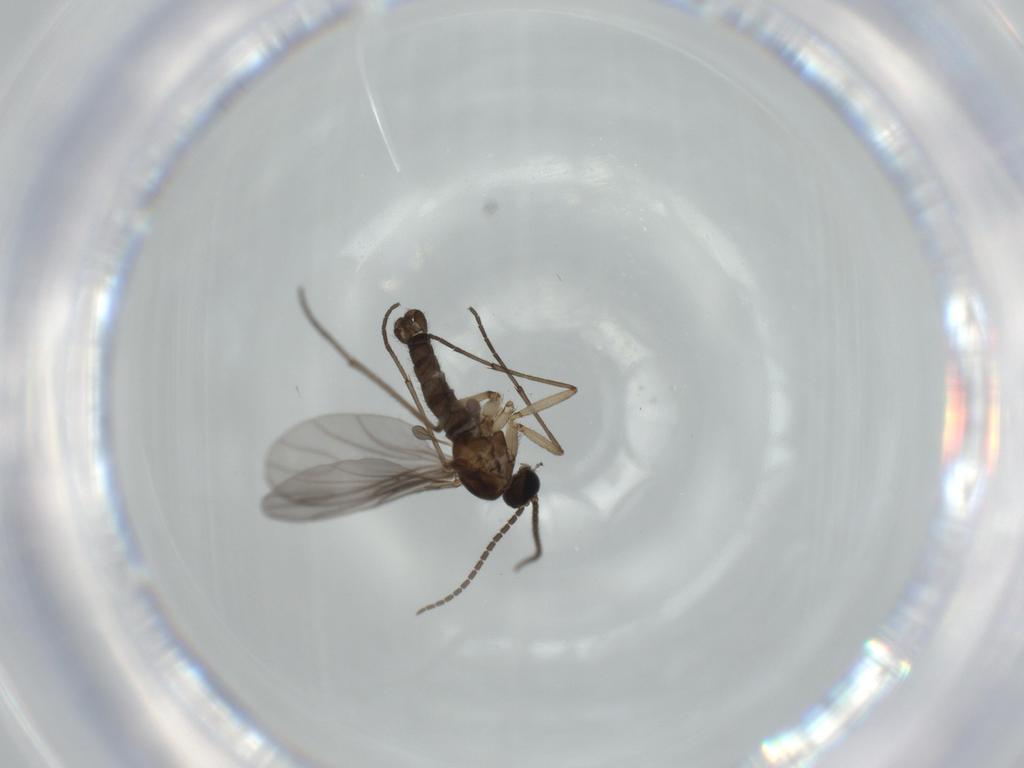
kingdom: Animalia
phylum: Arthropoda
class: Insecta
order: Diptera
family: Sciaridae
